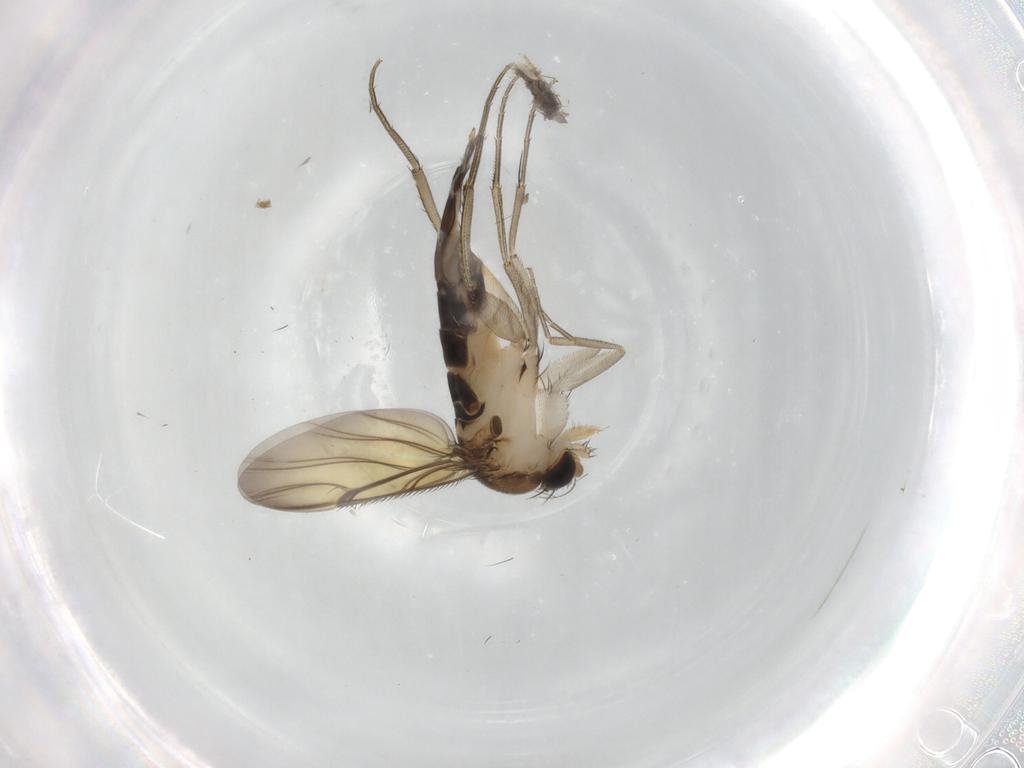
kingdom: Animalia
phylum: Arthropoda
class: Insecta
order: Diptera
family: Phoridae
